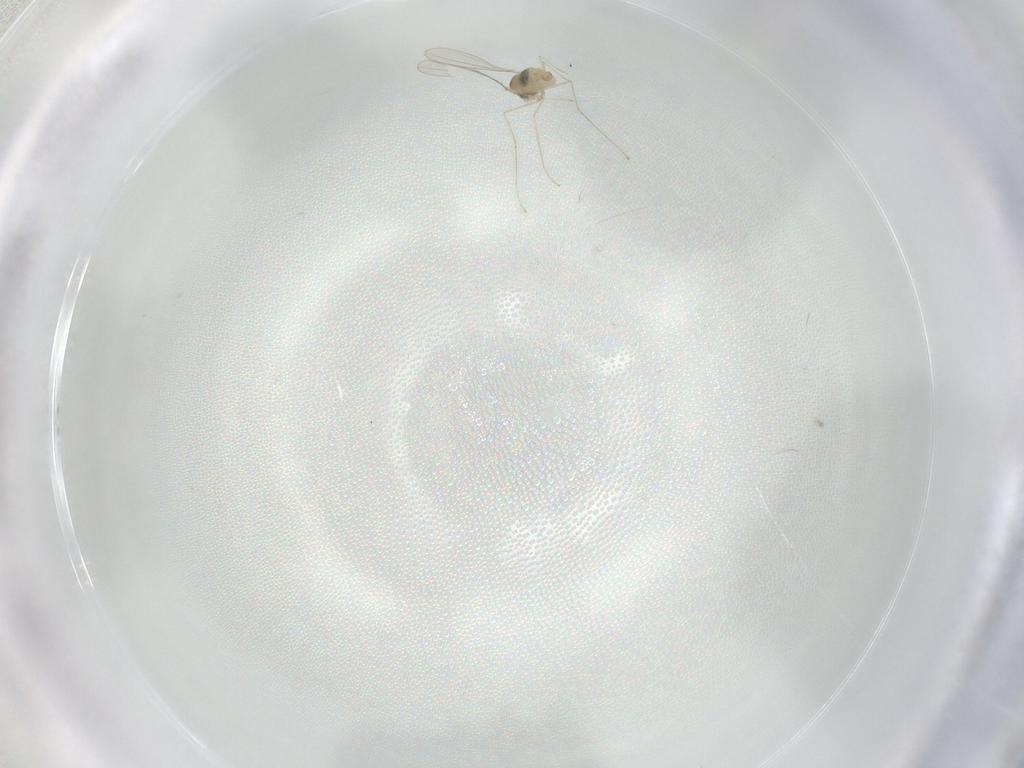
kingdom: Animalia
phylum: Arthropoda
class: Insecta
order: Diptera
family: Cecidomyiidae
